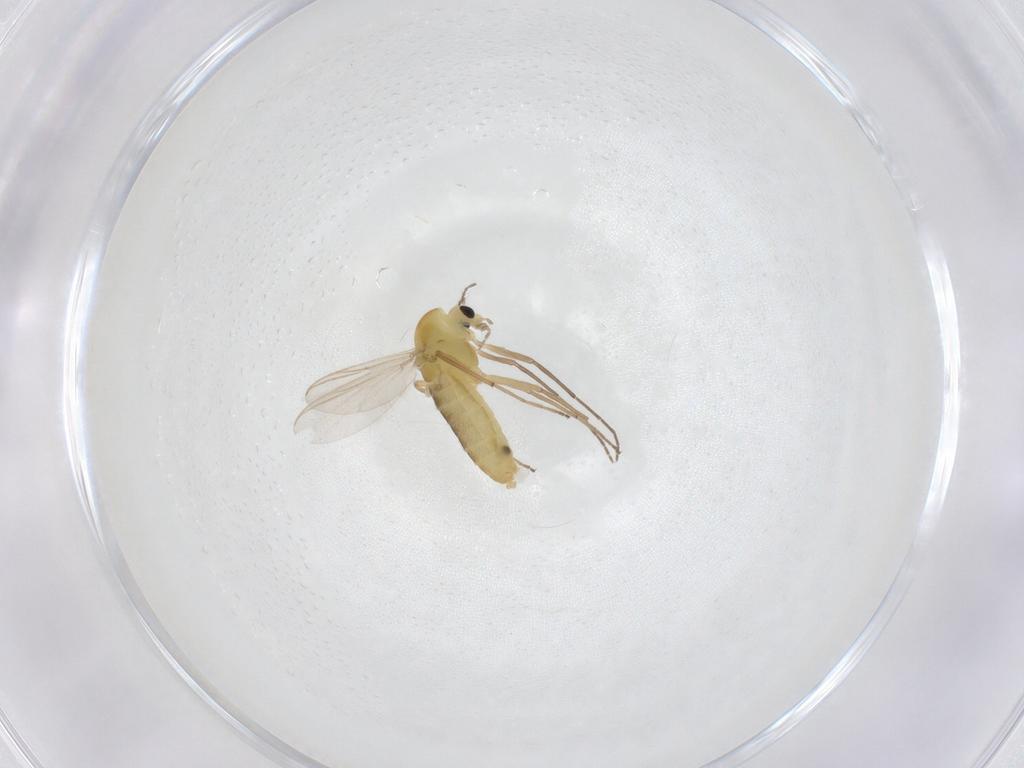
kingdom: Animalia
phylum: Arthropoda
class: Insecta
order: Diptera
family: Chironomidae
